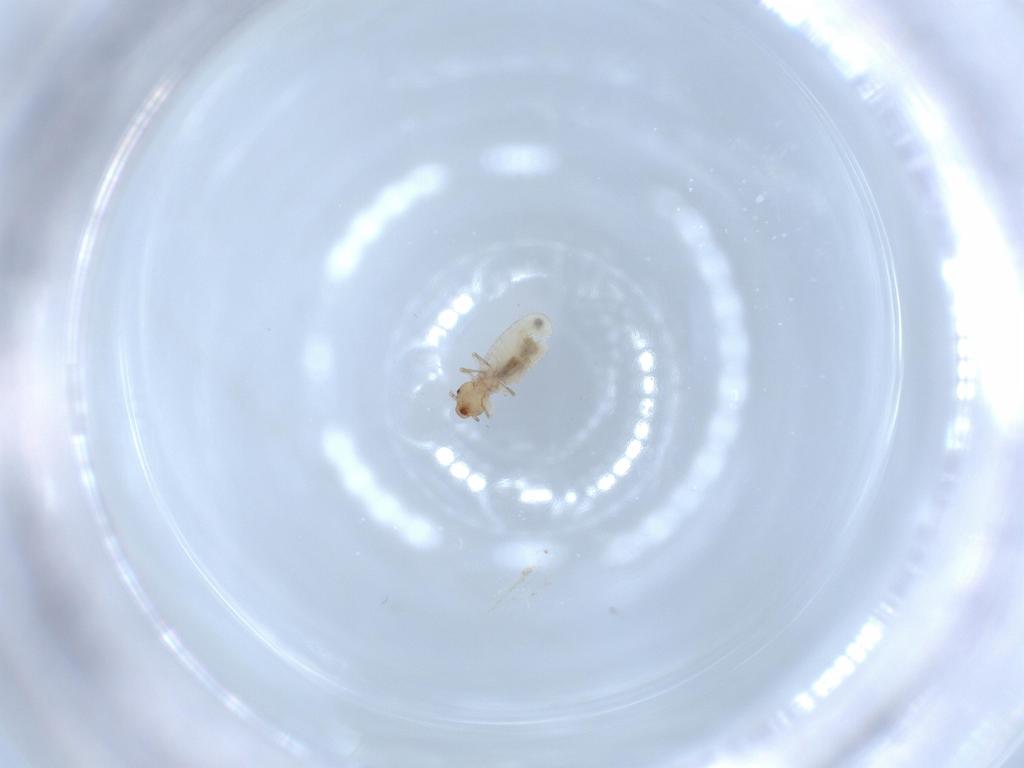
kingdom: Animalia
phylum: Arthropoda
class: Insecta
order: Psocodea
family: Liposcelididae
